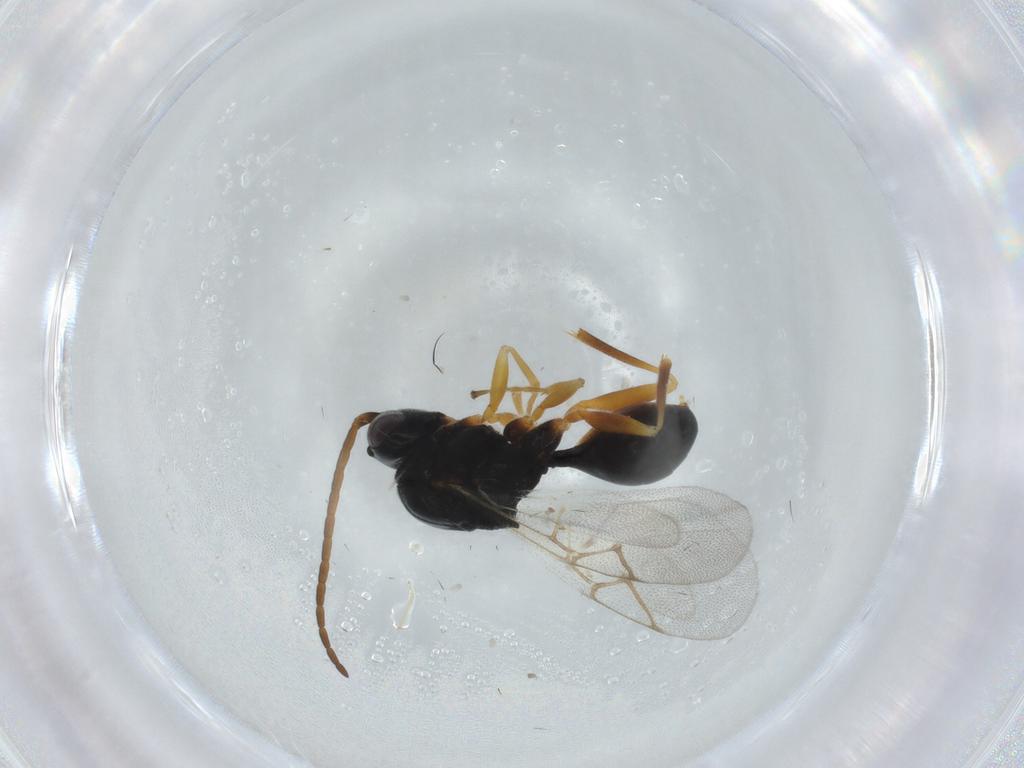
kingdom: Animalia
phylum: Arthropoda
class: Insecta
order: Hymenoptera
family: Figitidae
